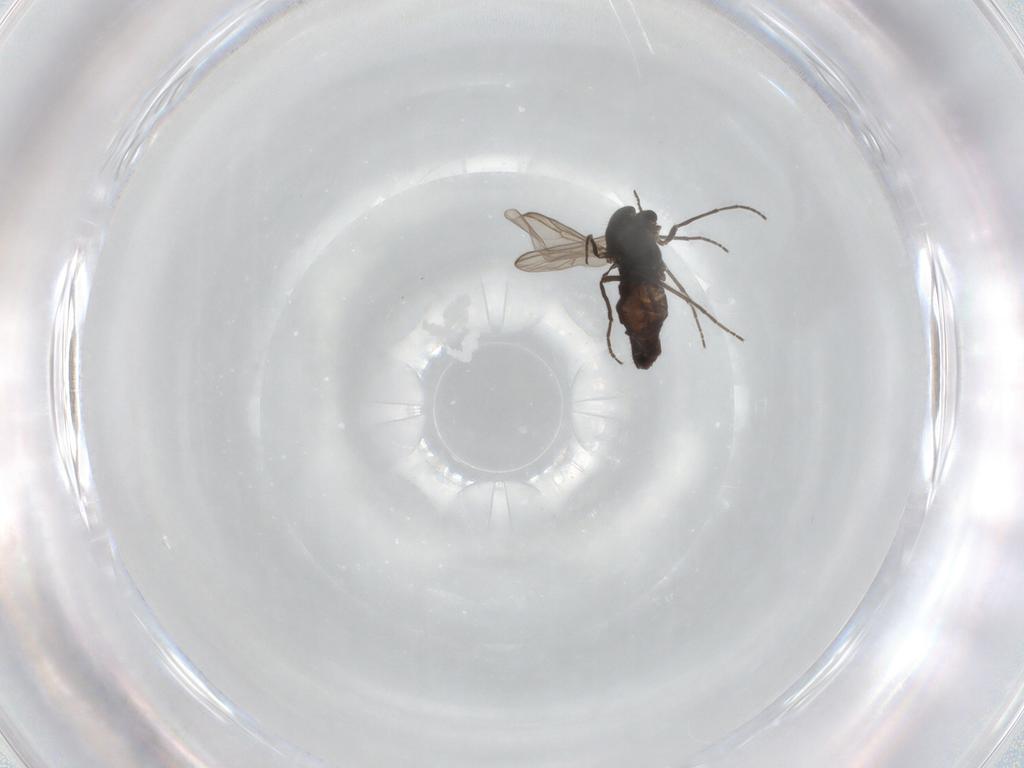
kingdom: Animalia
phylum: Arthropoda
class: Insecta
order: Diptera
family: Chironomidae
